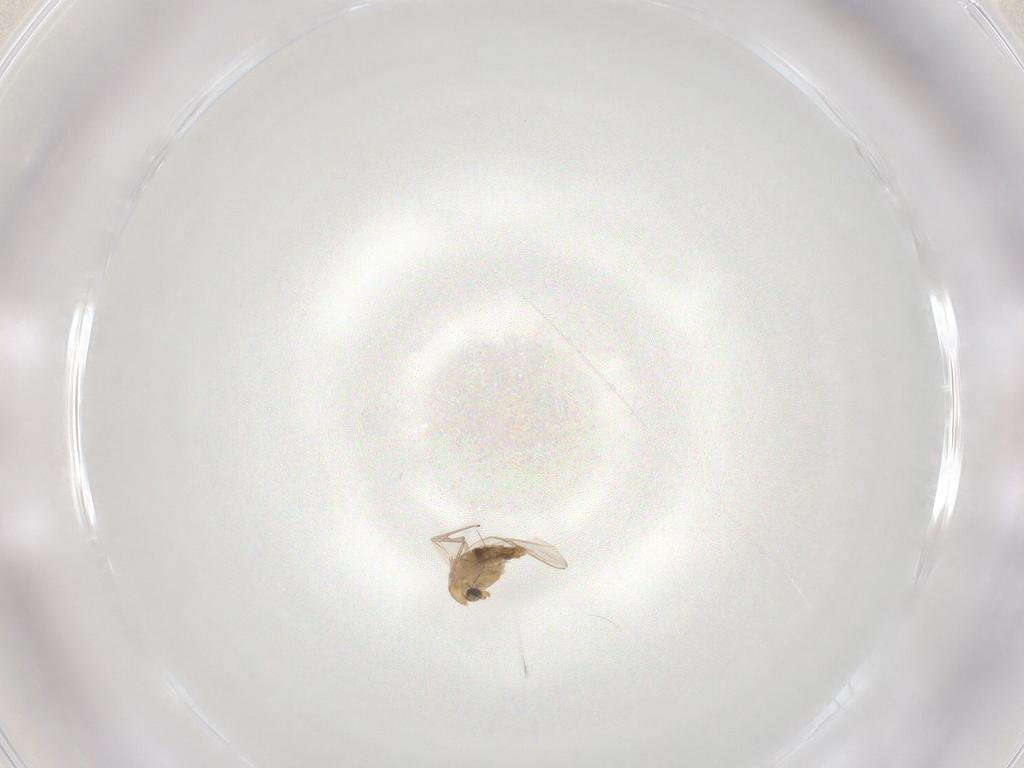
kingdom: Animalia
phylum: Arthropoda
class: Insecta
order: Diptera
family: Chironomidae
